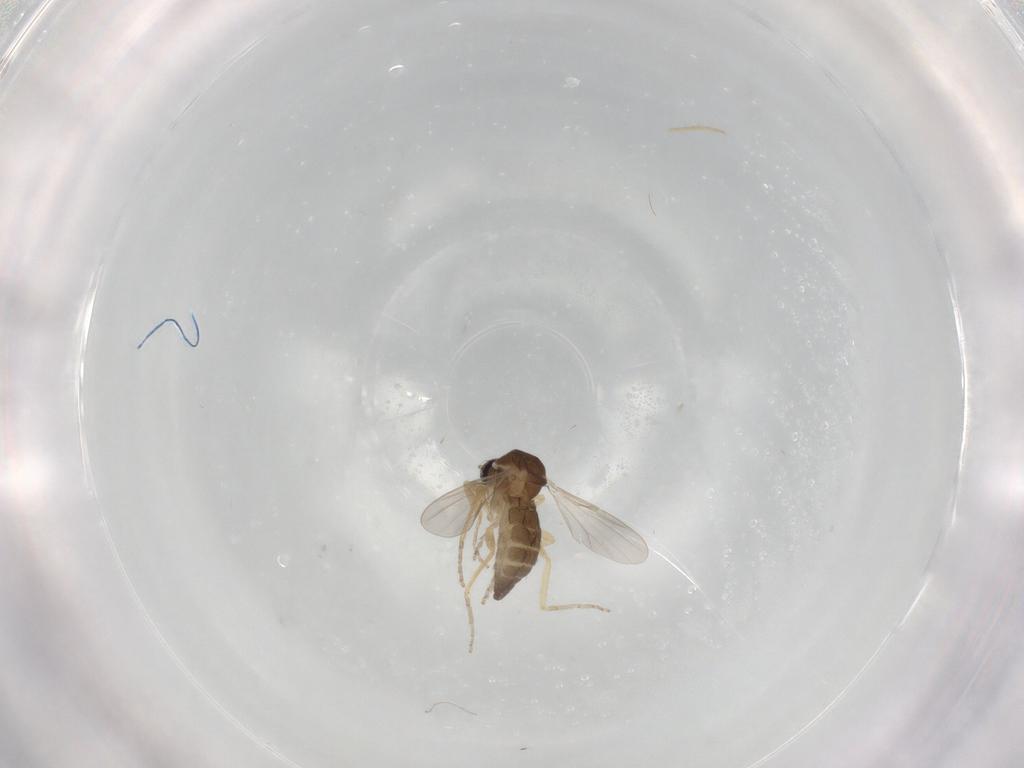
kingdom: Animalia
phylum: Arthropoda
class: Insecta
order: Diptera
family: Ceratopogonidae
